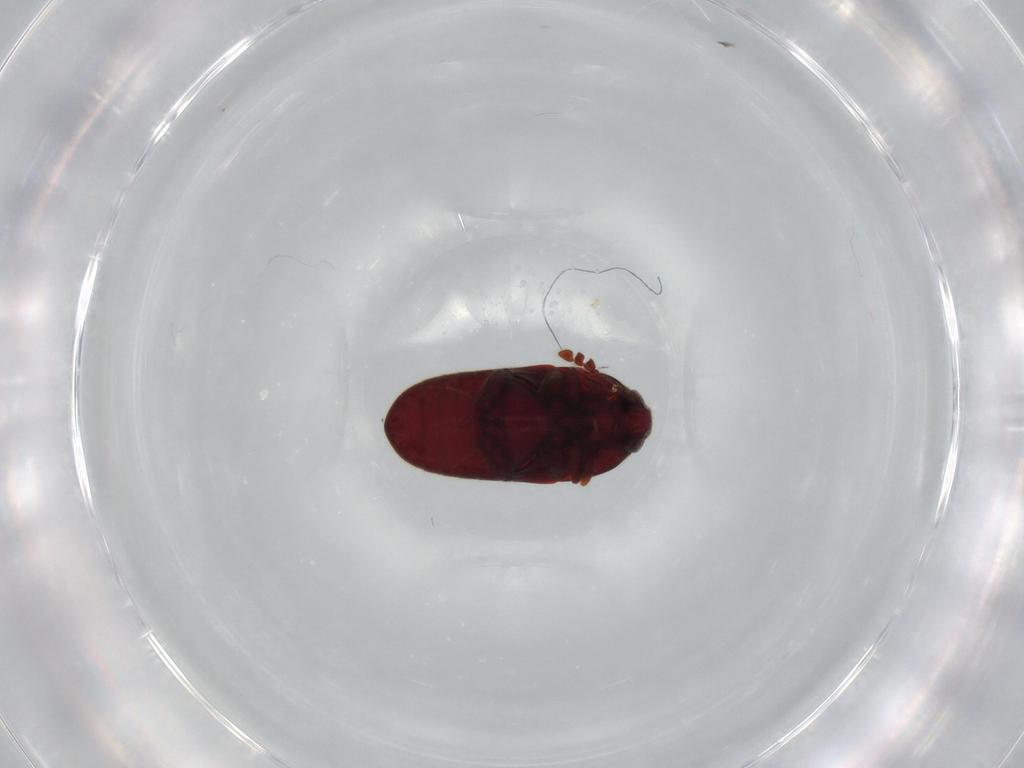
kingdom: Animalia
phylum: Arthropoda
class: Insecta
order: Coleoptera
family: Throscidae
